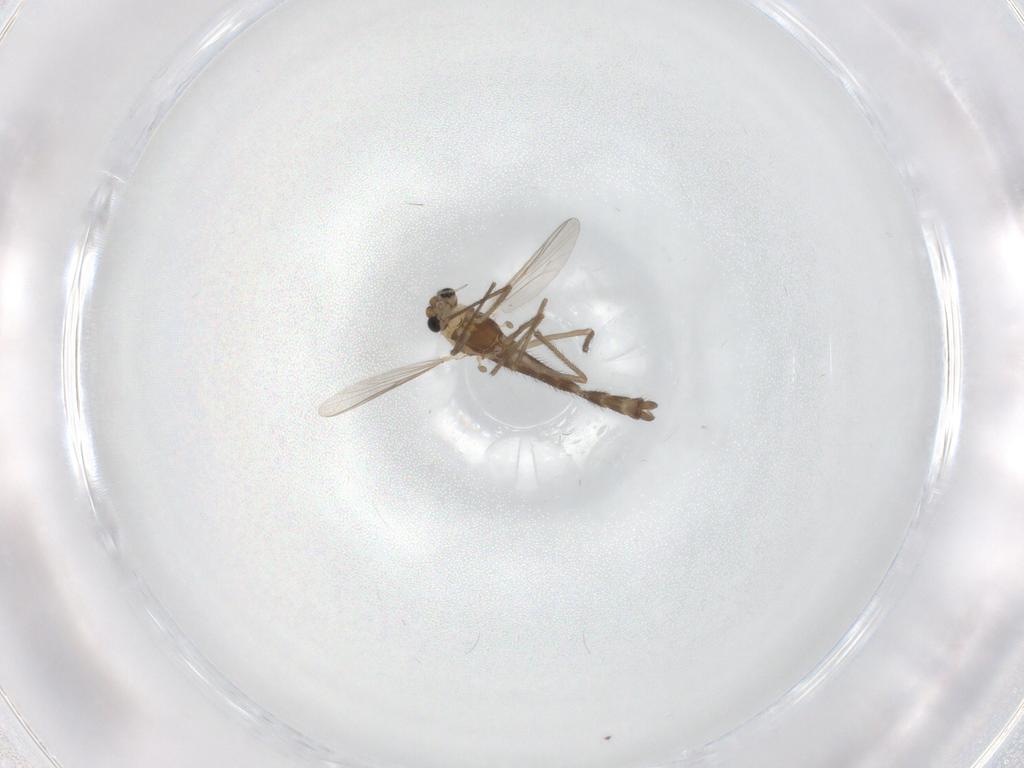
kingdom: Animalia
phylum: Arthropoda
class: Insecta
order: Diptera
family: Chironomidae
